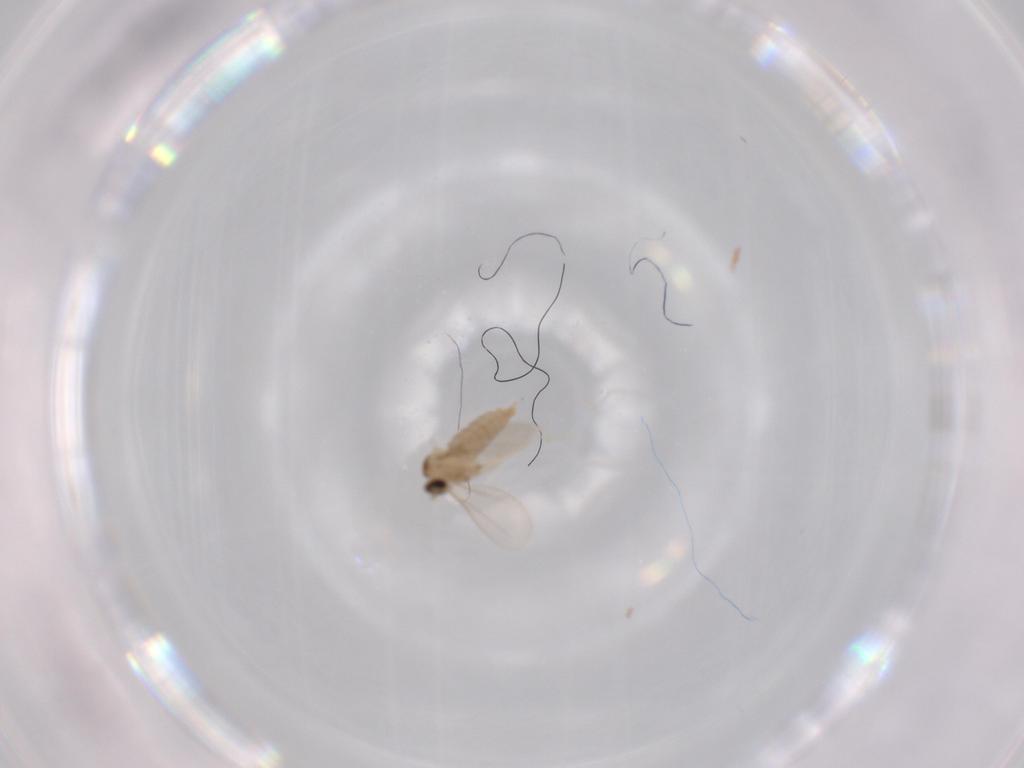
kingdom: Animalia
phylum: Arthropoda
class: Insecta
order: Diptera
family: Cecidomyiidae
